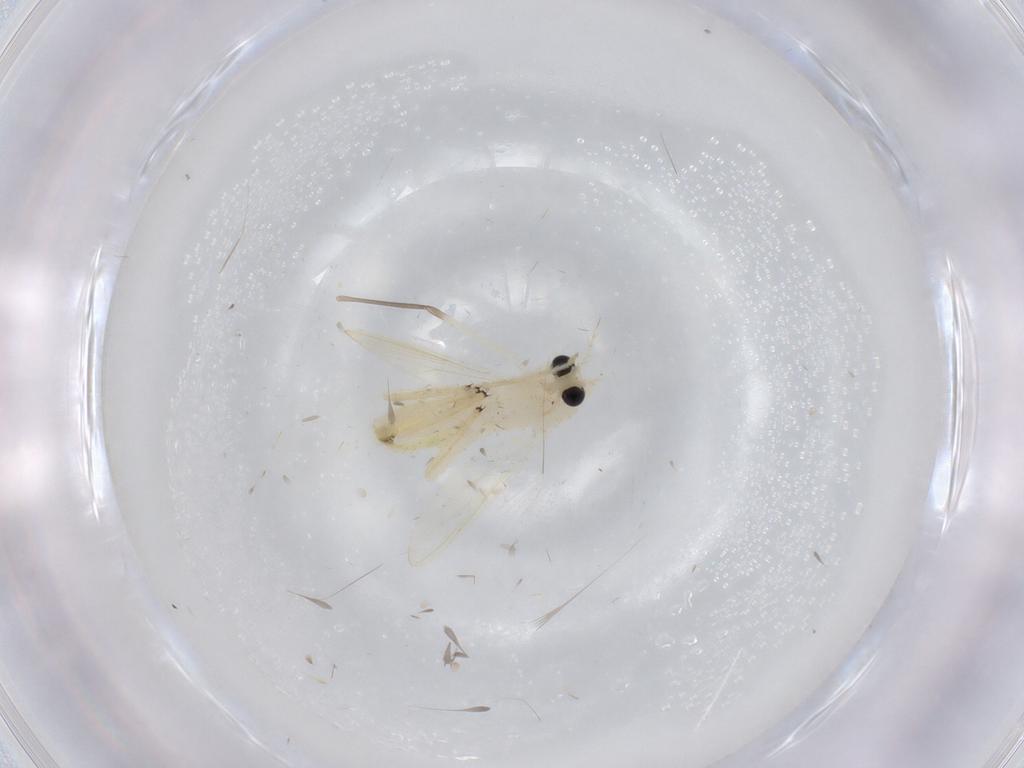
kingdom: Animalia
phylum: Arthropoda
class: Insecta
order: Diptera
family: Chironomidae
